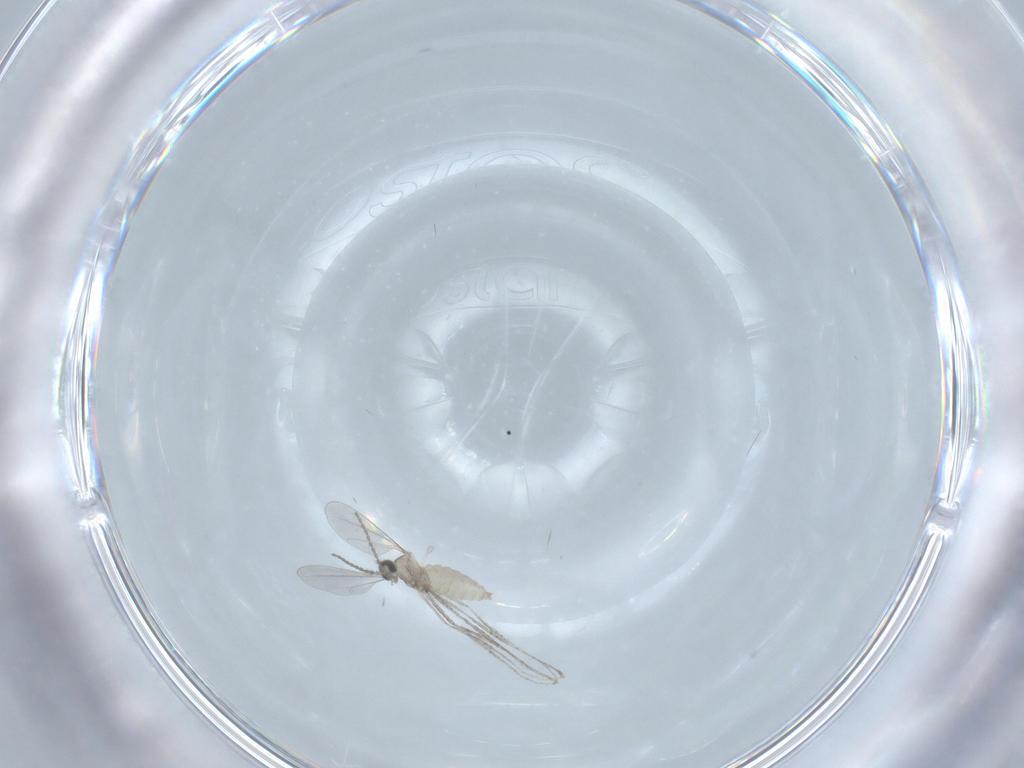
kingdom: Animalia
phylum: Arthropoda
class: Insecta
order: Diptera
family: Cecidomyiidae
